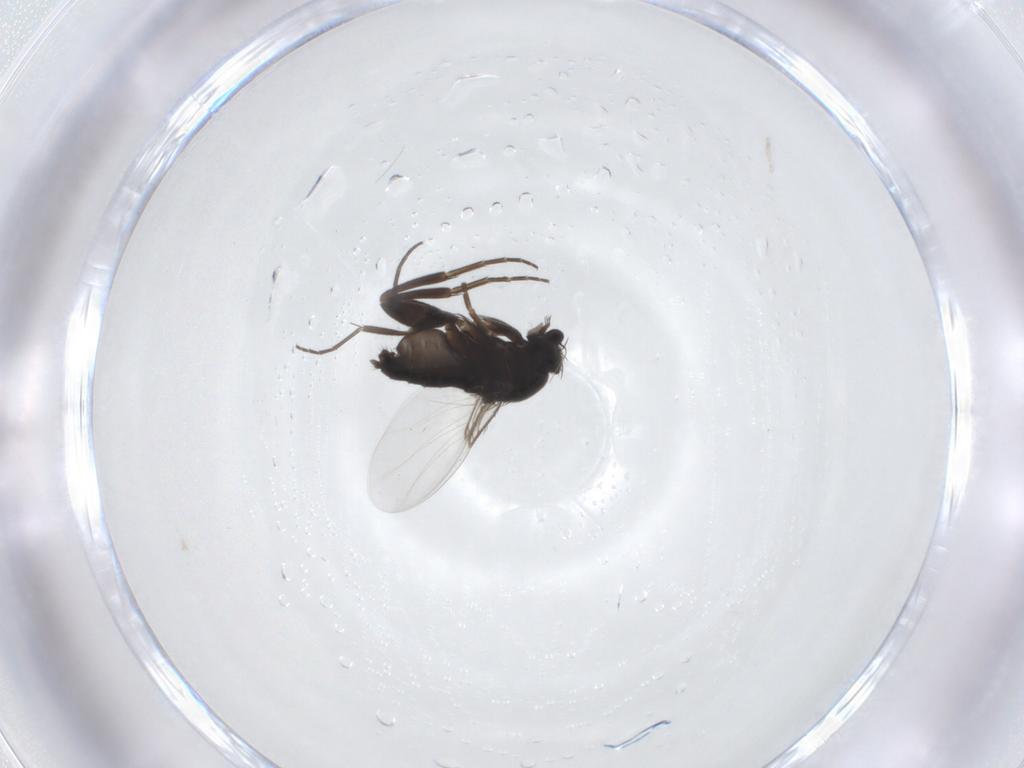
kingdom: Animalia
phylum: Arthropoda
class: Insecta
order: Diptera
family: Phoridae
